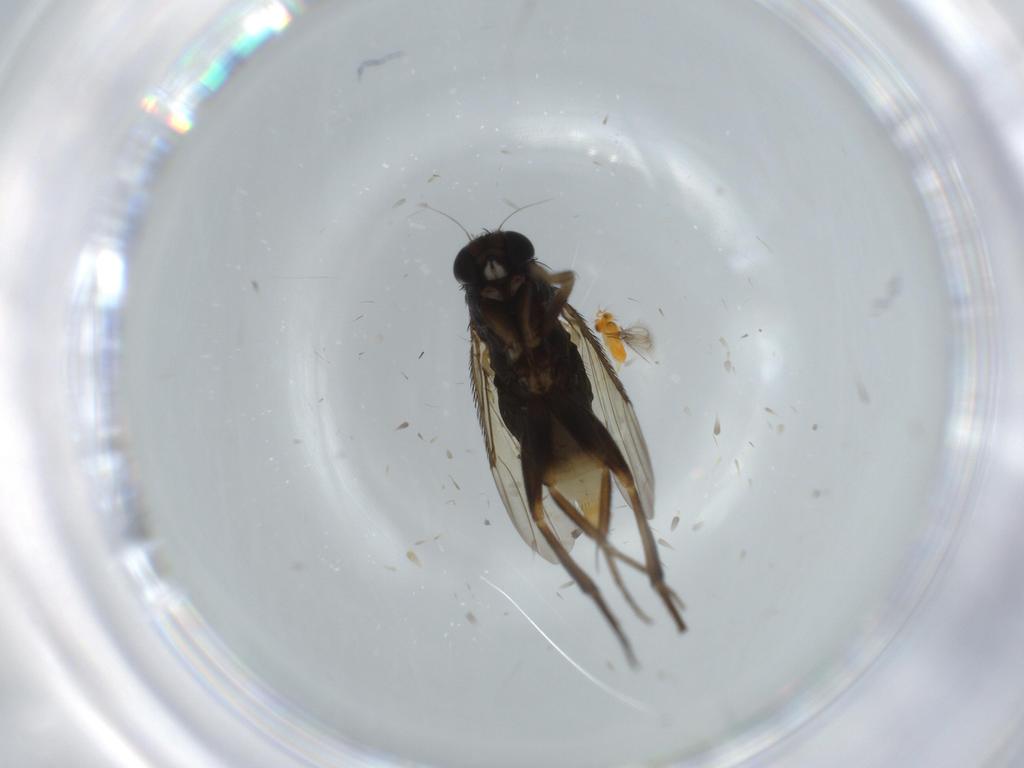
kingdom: Animalia
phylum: Arthropoda
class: Insecta
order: Diptera
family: Phoridae
